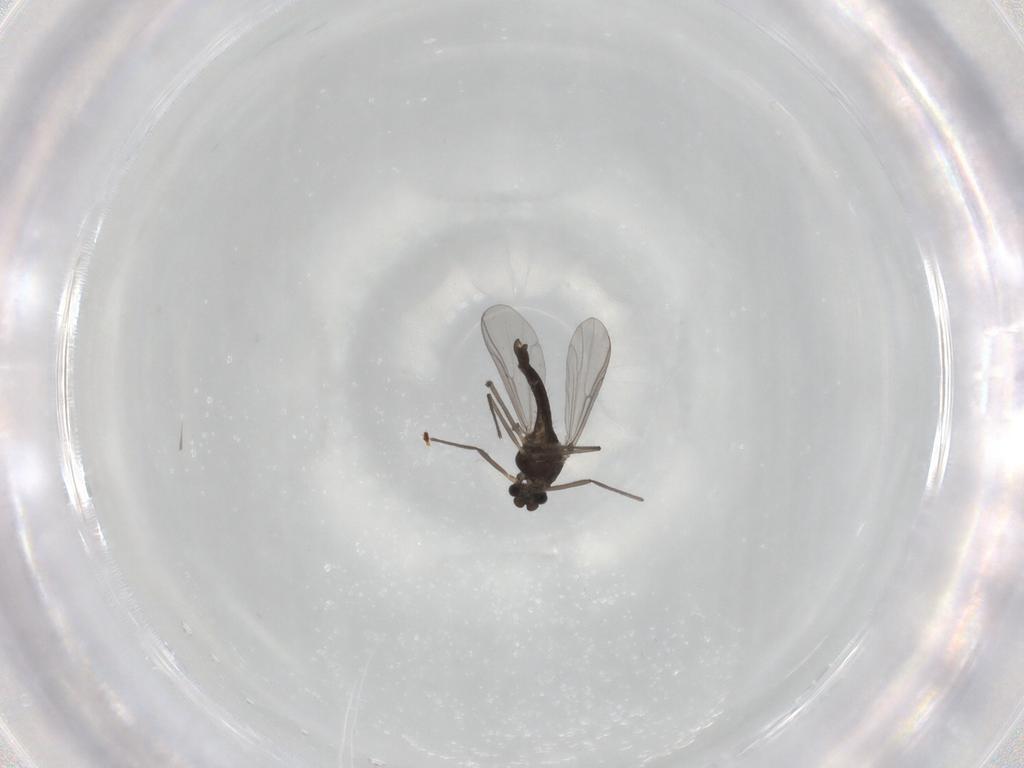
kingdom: Animalia
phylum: Arthropoda
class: Insecta
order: Diptera
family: Chironomidae
